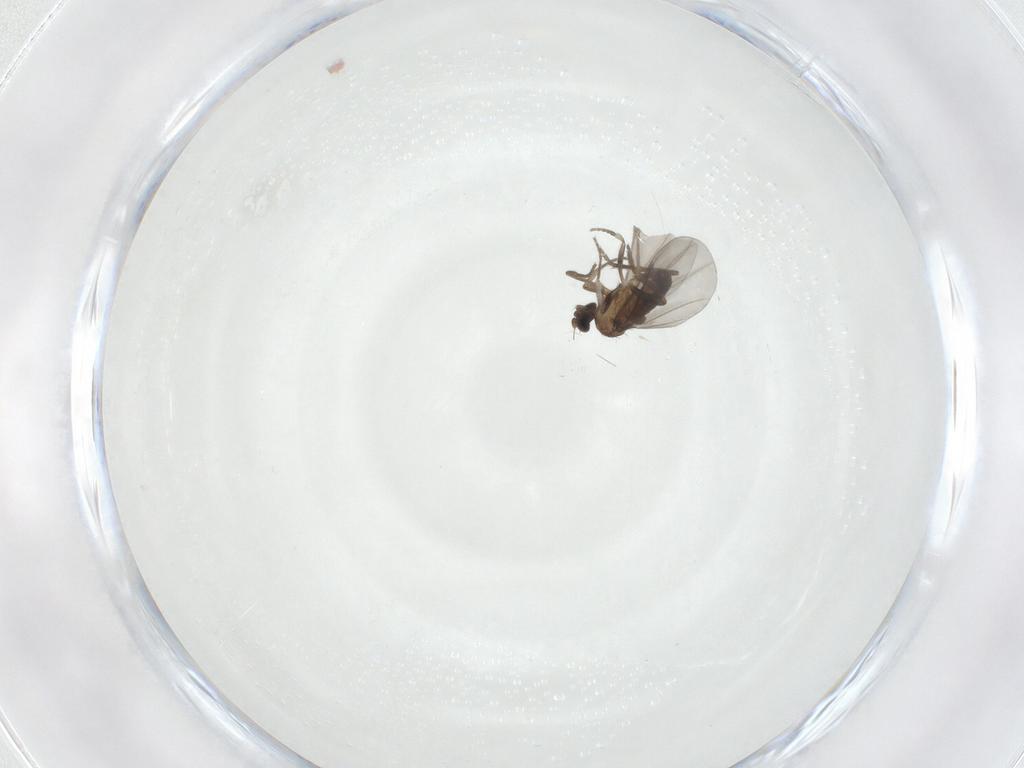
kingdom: Animalia
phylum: Arthropoda
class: Insecta
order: Diptera
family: Phoridae
